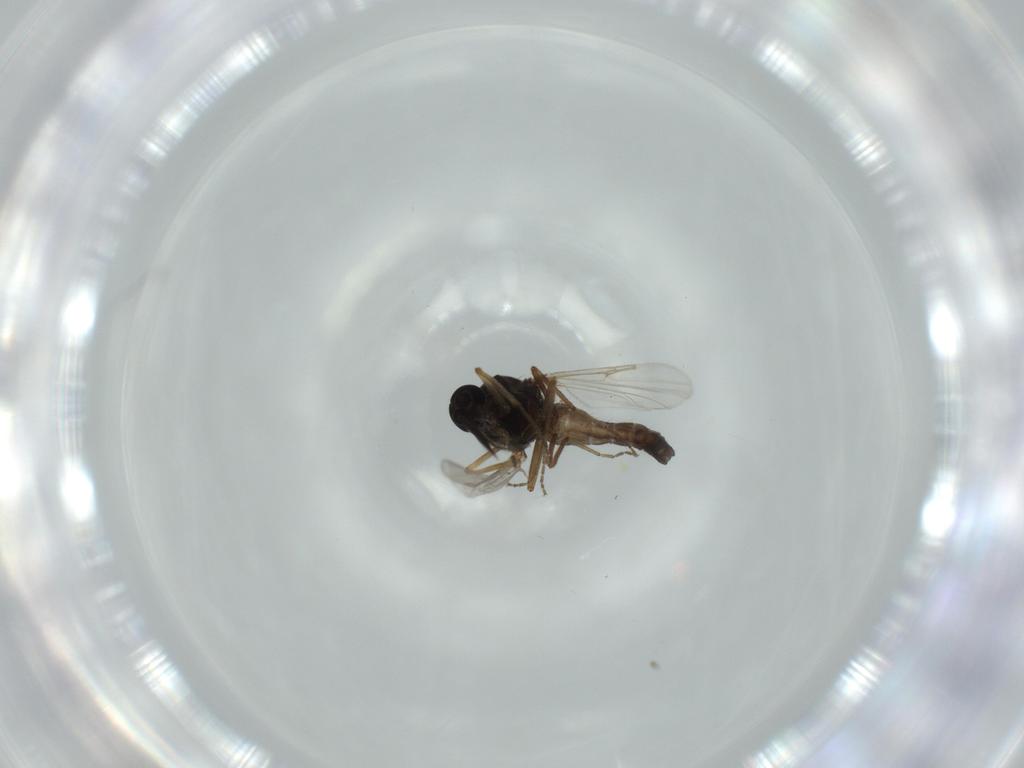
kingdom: Animalia
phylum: Arthropoda
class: Insecta
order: Diptera
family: Ceratopogonidae
